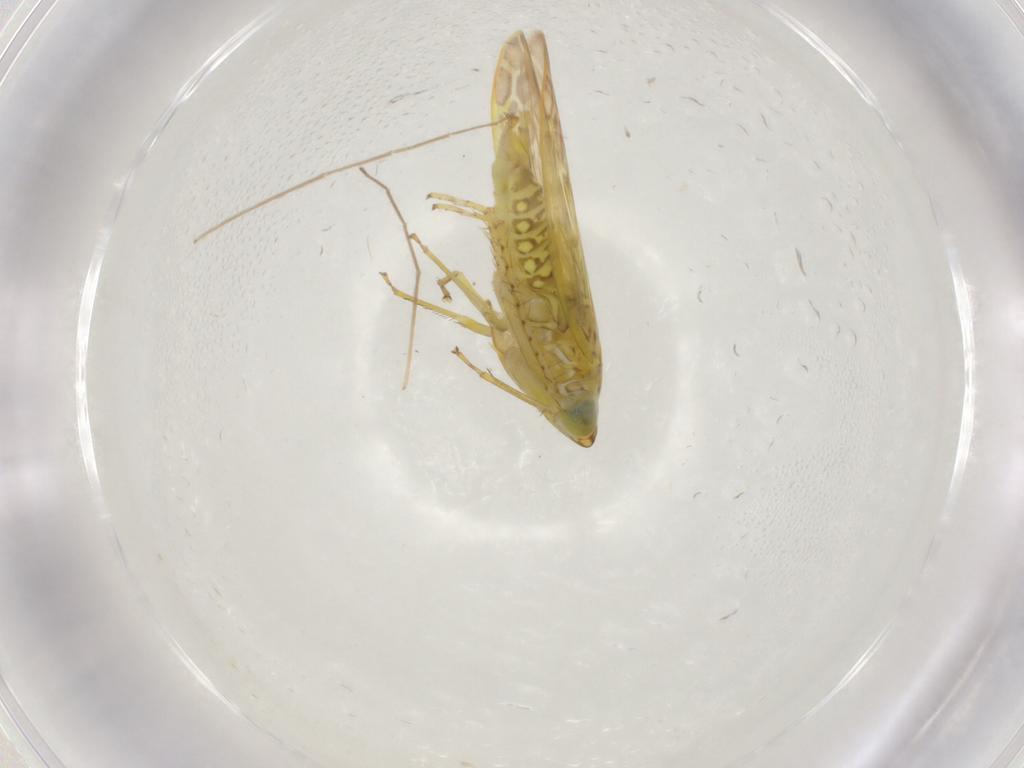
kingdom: Animalia
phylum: Arthropoda
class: Insecta
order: Hemiptera
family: Cicadellidae
